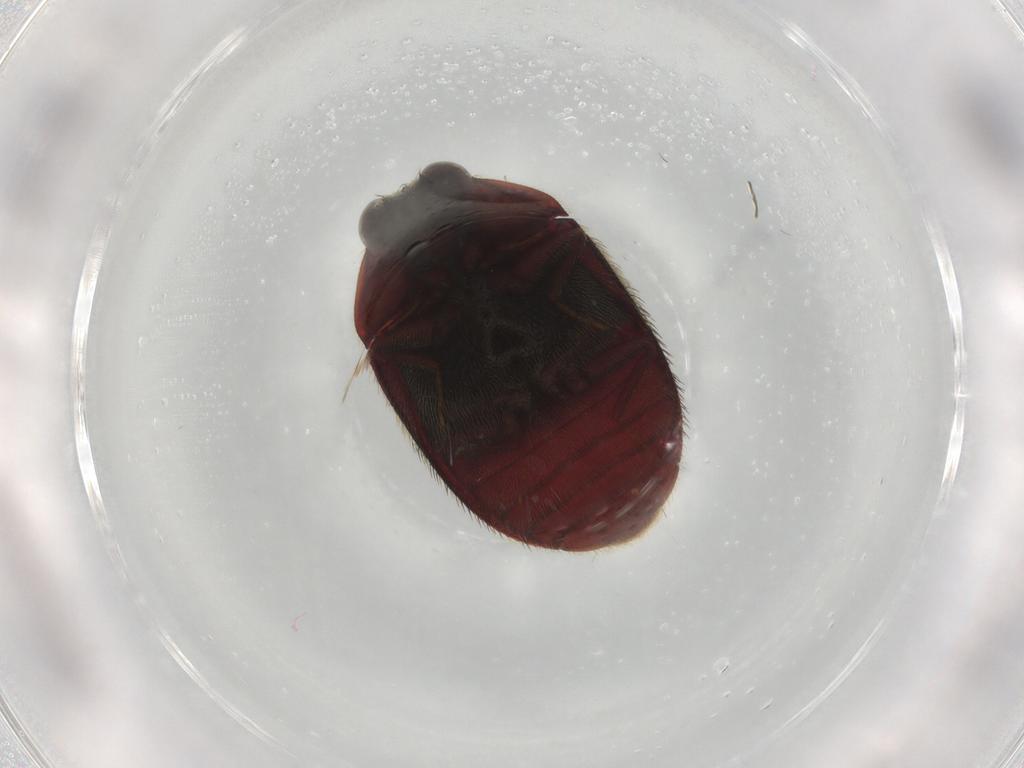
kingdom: Animalia
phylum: Arthropoda
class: Insecta
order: Coleoptera
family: Dermestidae
